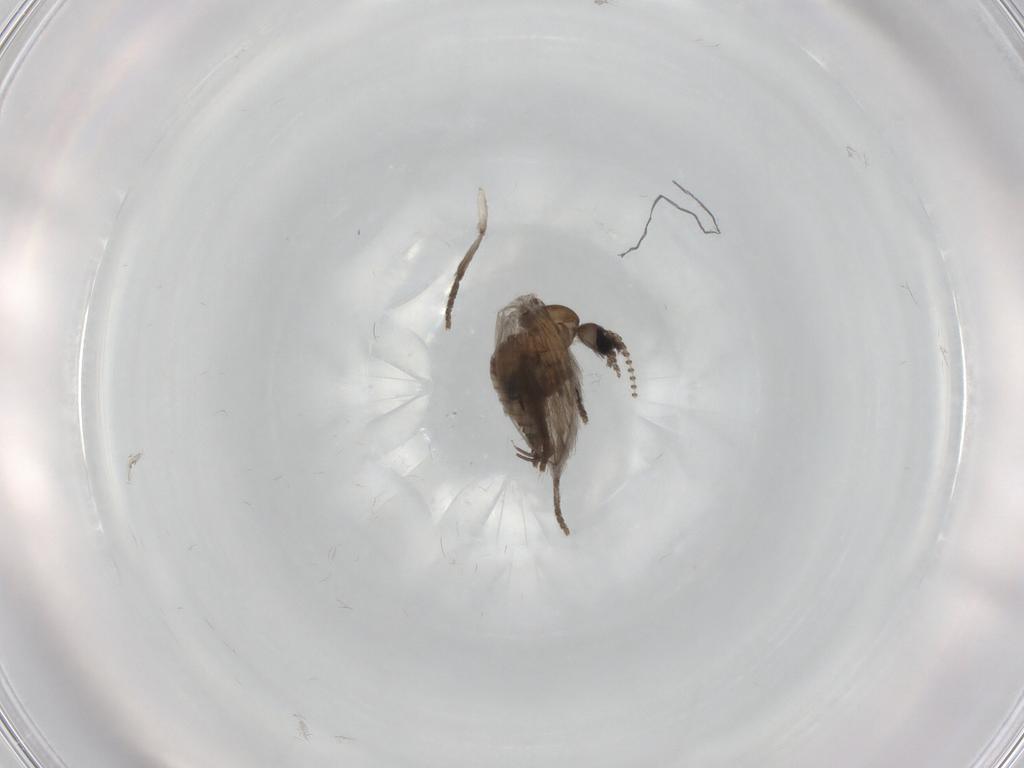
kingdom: Animalia
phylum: Arthropoda
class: Insecta
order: Diptera
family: Psychodidae
